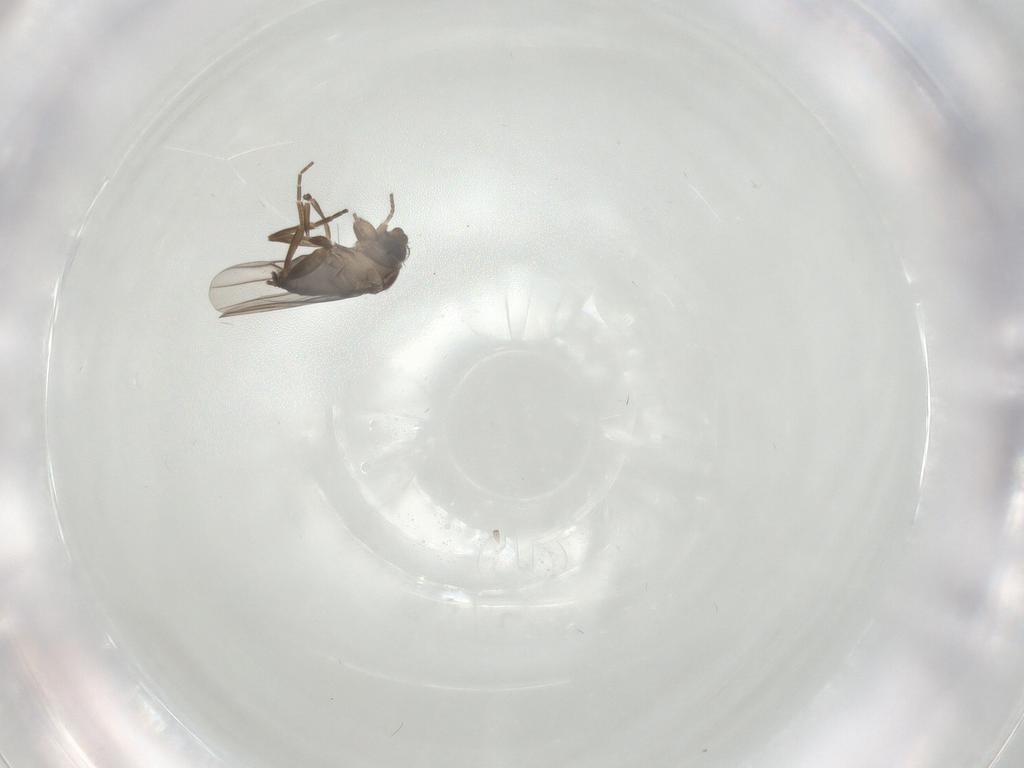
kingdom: Animalia
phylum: Arthropoda
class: Insecta
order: Diptera
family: Phoridae
